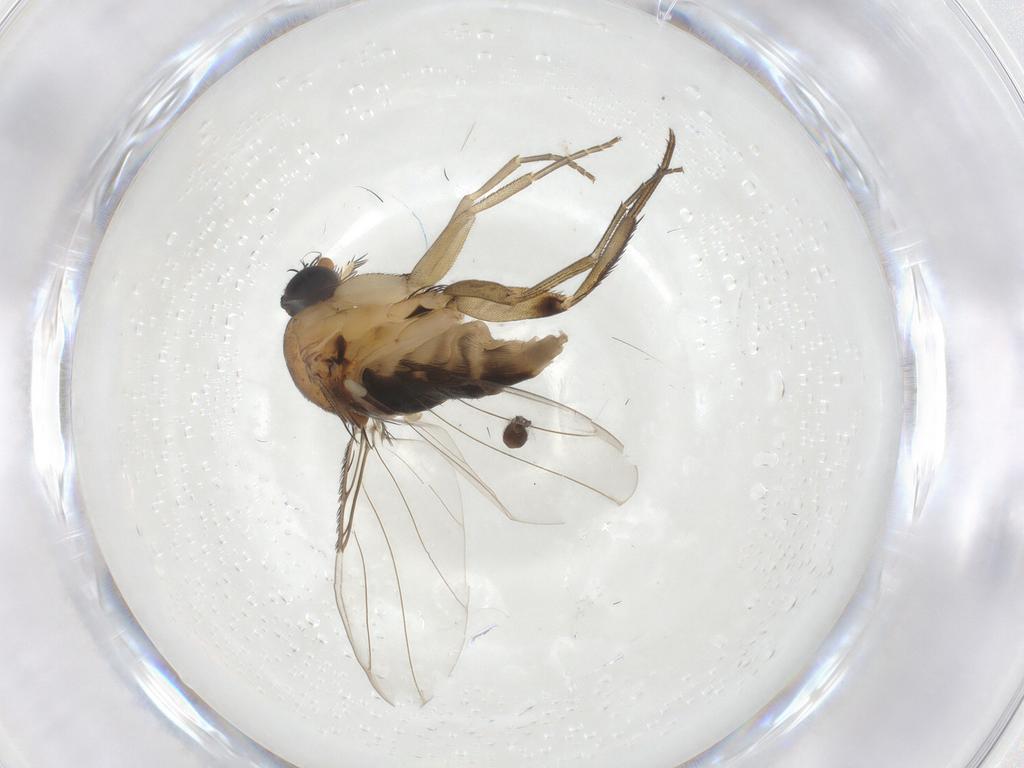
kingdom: Animalia
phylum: Arthropoda
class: Insecta
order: Diptera
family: Phoridae
